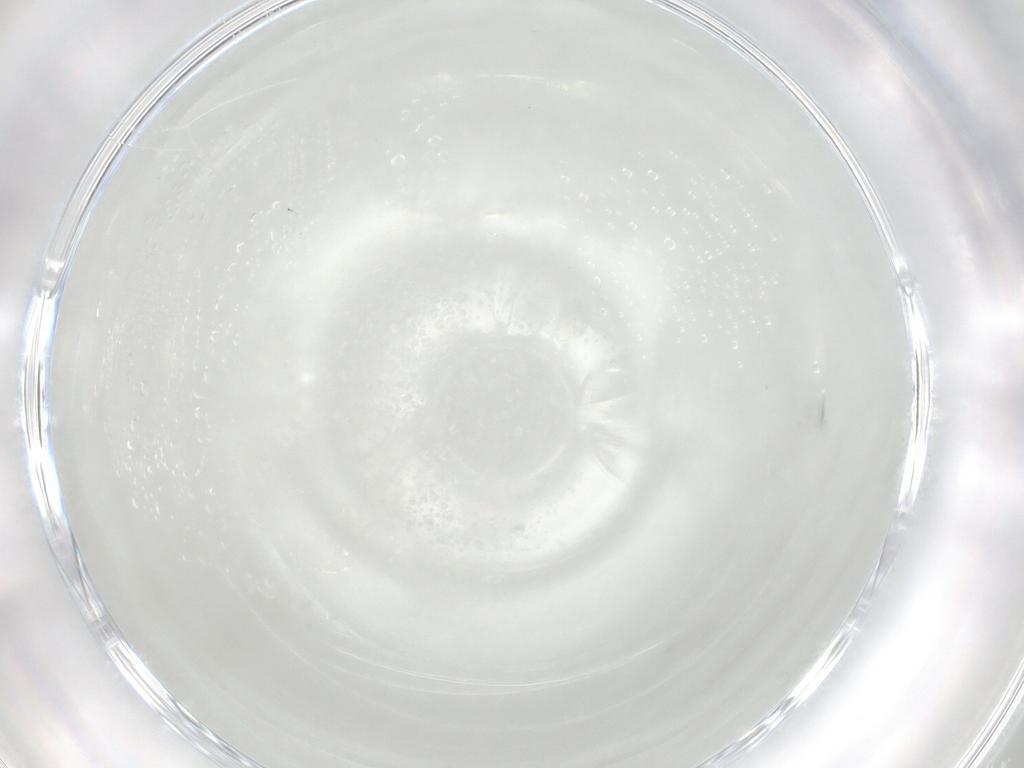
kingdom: Animalia
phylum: Arthropoda
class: Insecta
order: Diptera
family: Cecidomyiidae
